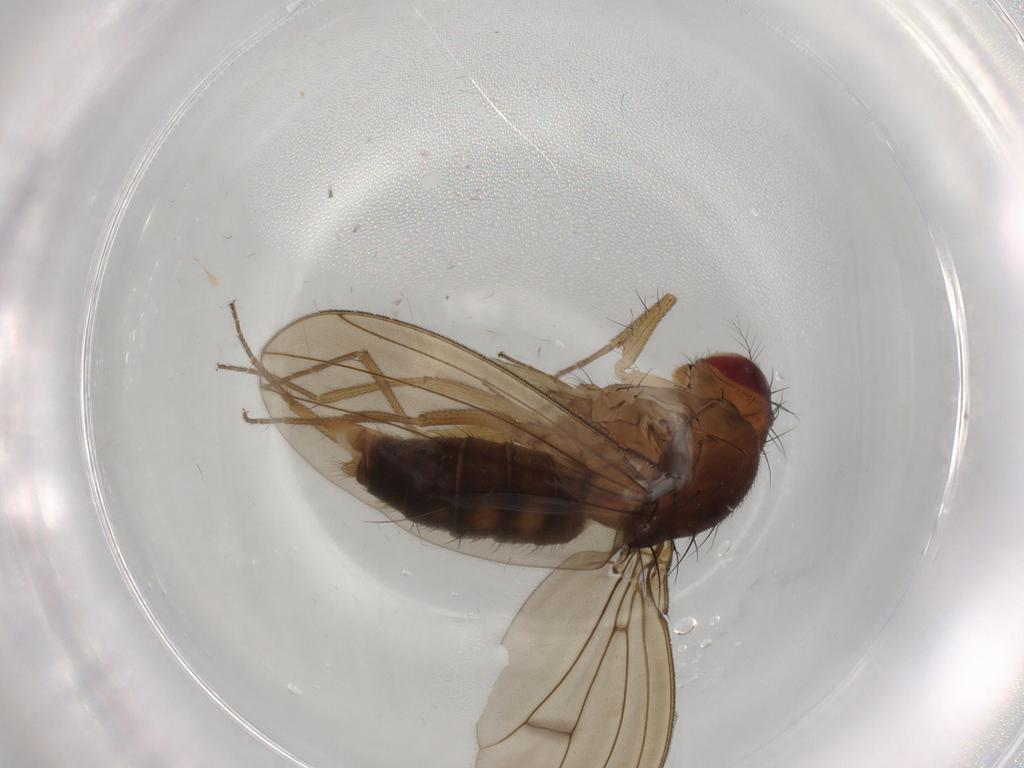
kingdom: Animalia
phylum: Arthropoda
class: Insecta
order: Diptera
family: Drosophilidae
